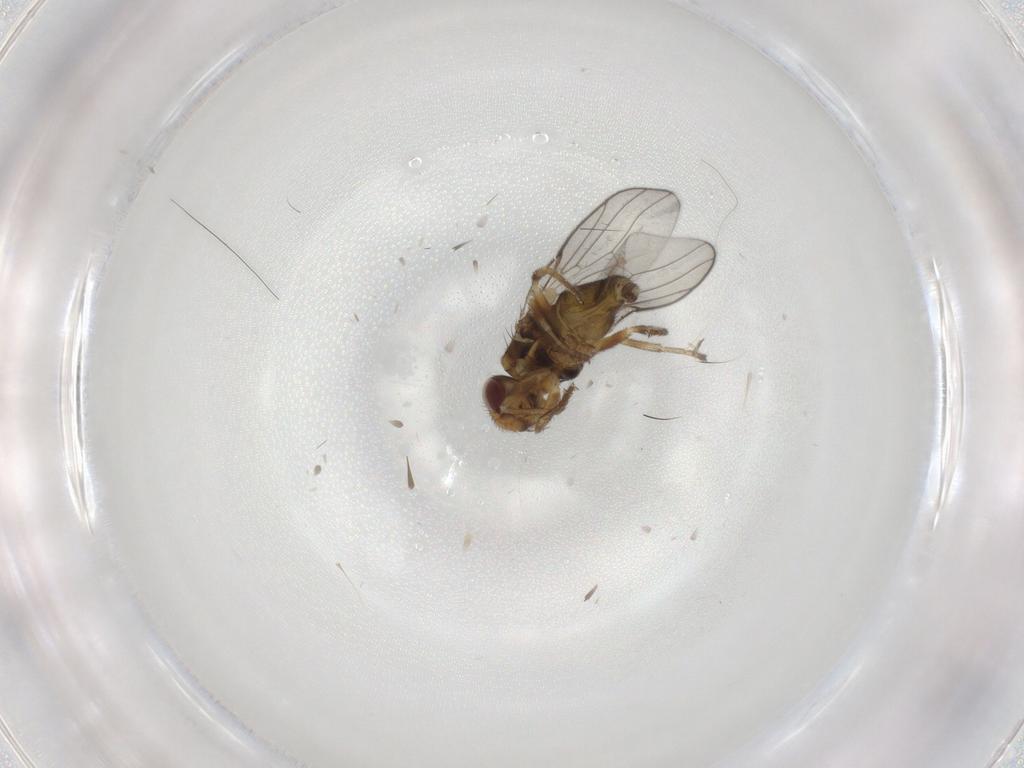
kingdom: Animalia
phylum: Arthropoda
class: Insecta
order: Diptera
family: Chloropidae
